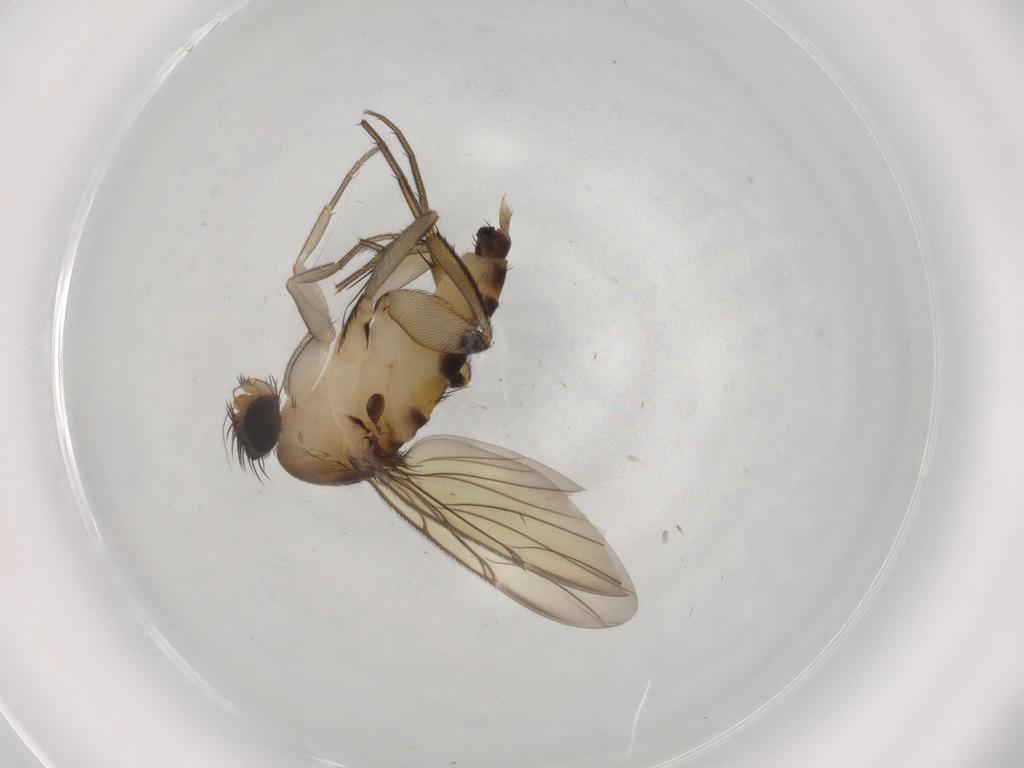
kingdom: Animalia
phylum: Arthropoda
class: Insecta
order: Diptera
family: Phoridae
